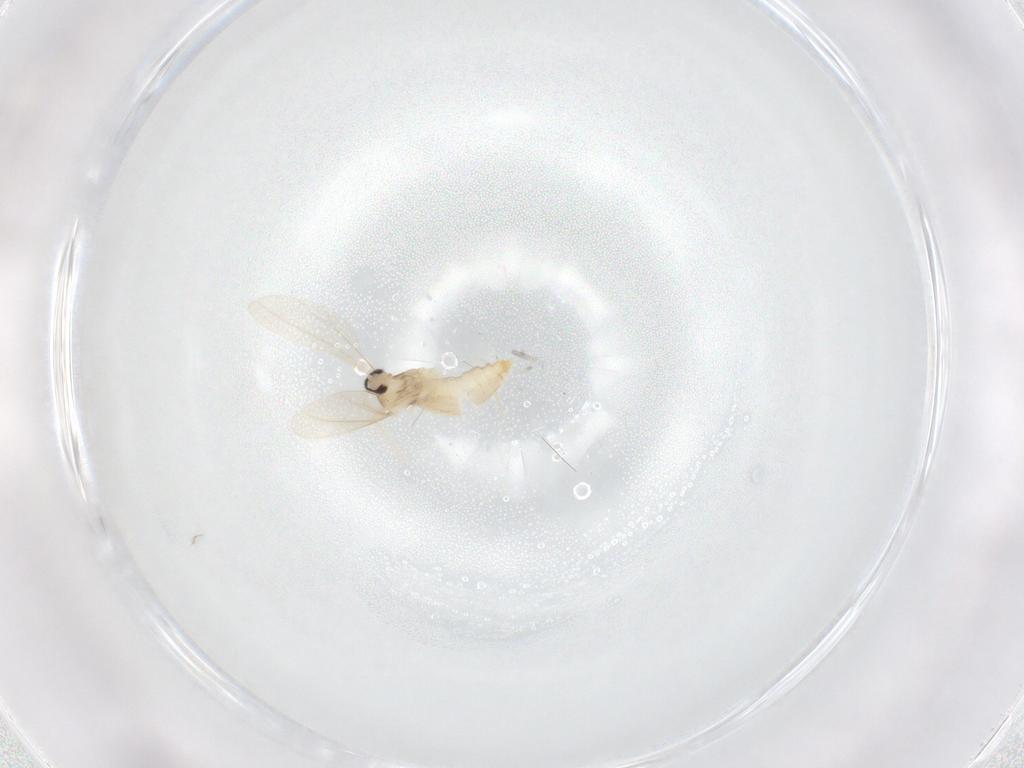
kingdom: Animalia
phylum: Arthropoda
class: Insecta
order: Diptera
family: Cecidomyiidae
